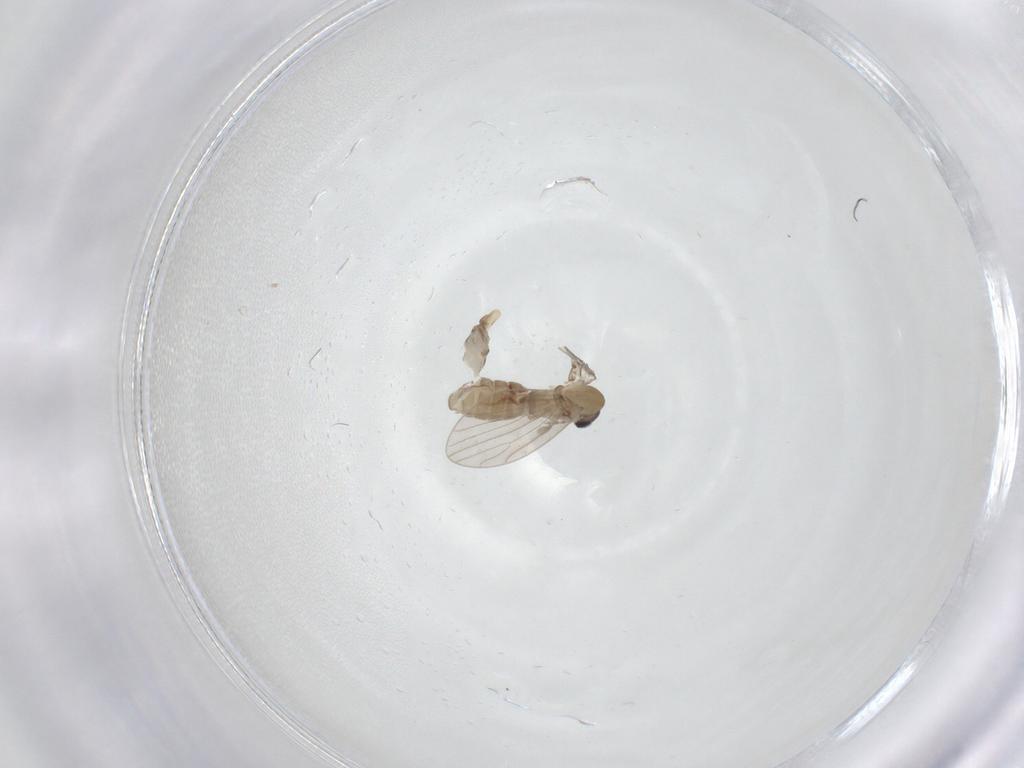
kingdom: Animalia
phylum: Arthropoda
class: Insecta
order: Diptera
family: Psychodidae
